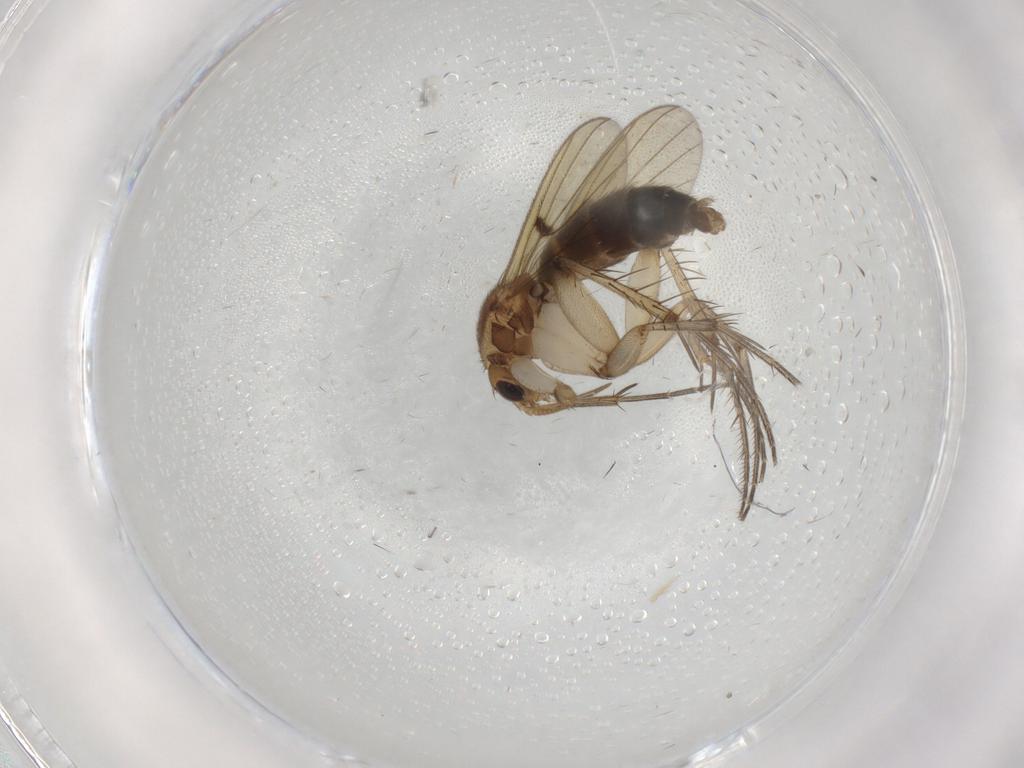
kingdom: Animalia
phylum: Arthropoda
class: Insecta
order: Diptera
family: Mycetophilidae
